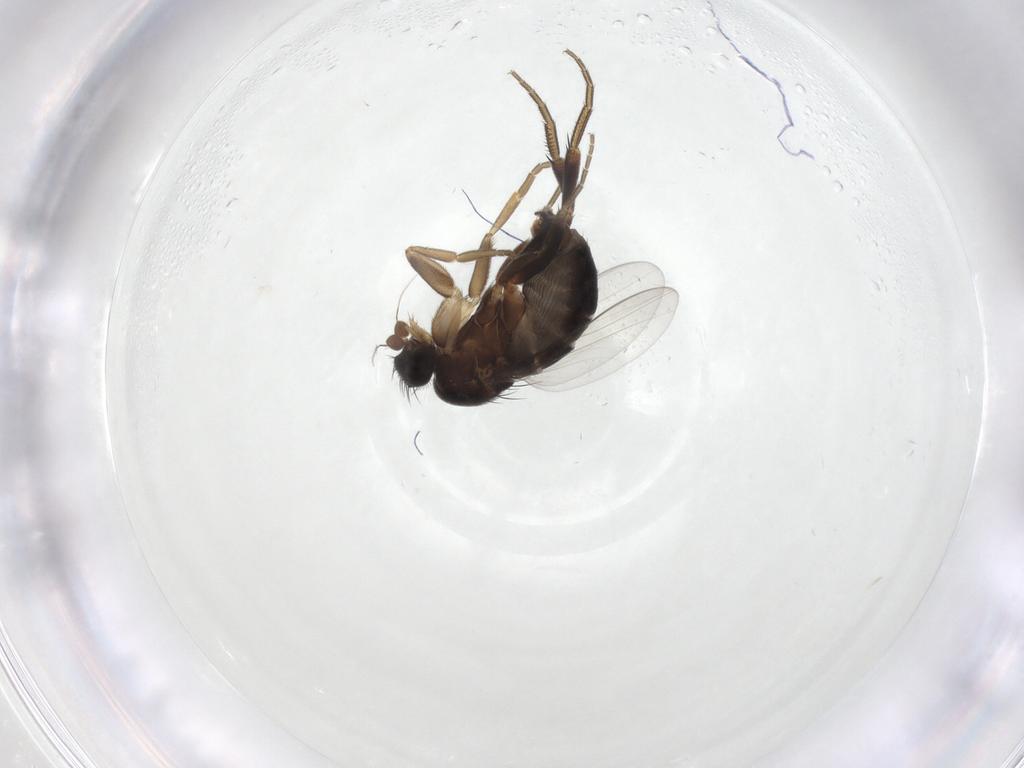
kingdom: Animalia
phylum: Arthropoda
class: Insecta
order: Diptera
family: Phoridae
